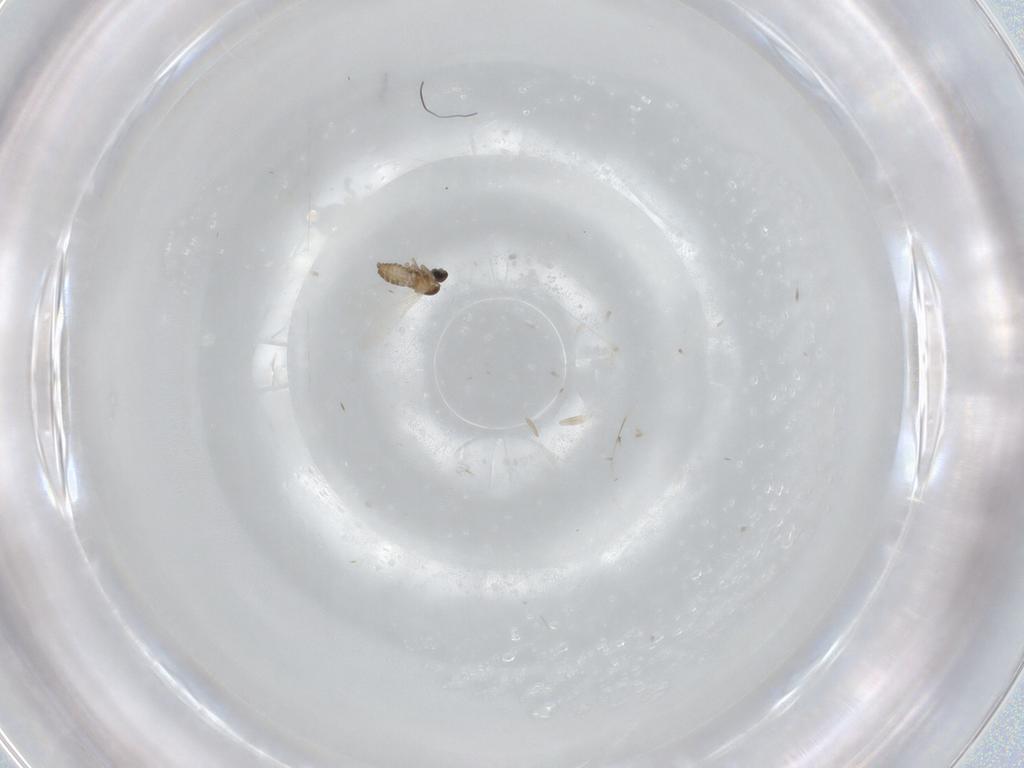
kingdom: Animalia
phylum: Arthropoda
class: Insecta
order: Diptera
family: Cecidomyiidae
